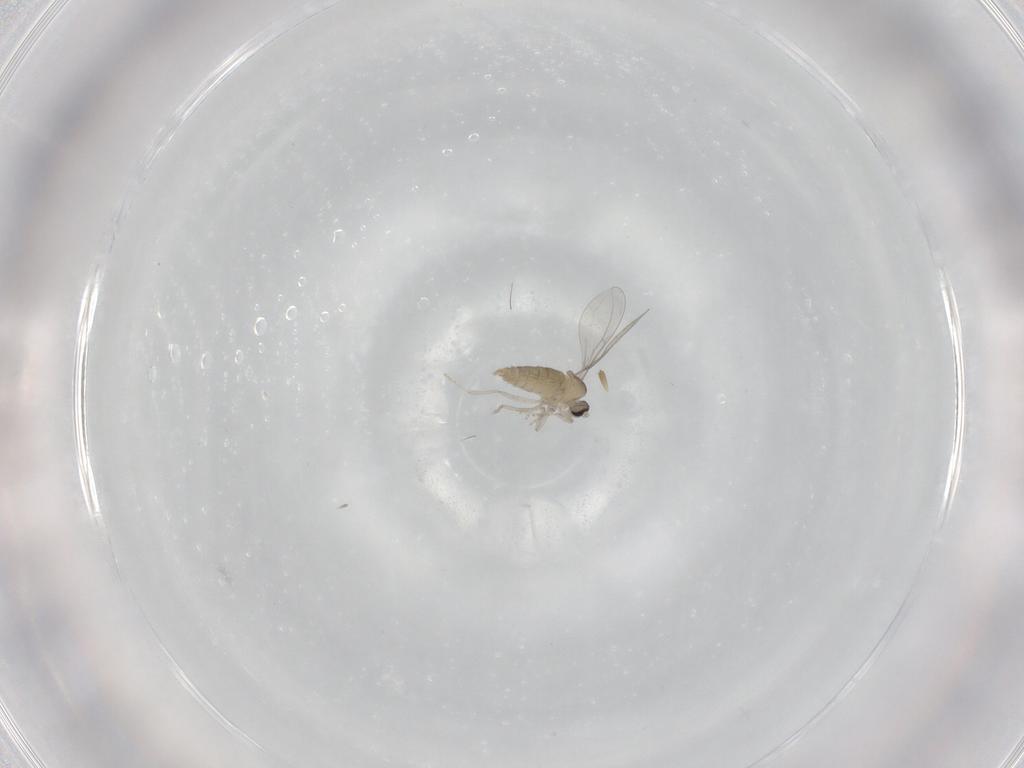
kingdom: Animalia
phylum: Arthropoda
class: Insecta
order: Diptera
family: Cecidomyiidae
